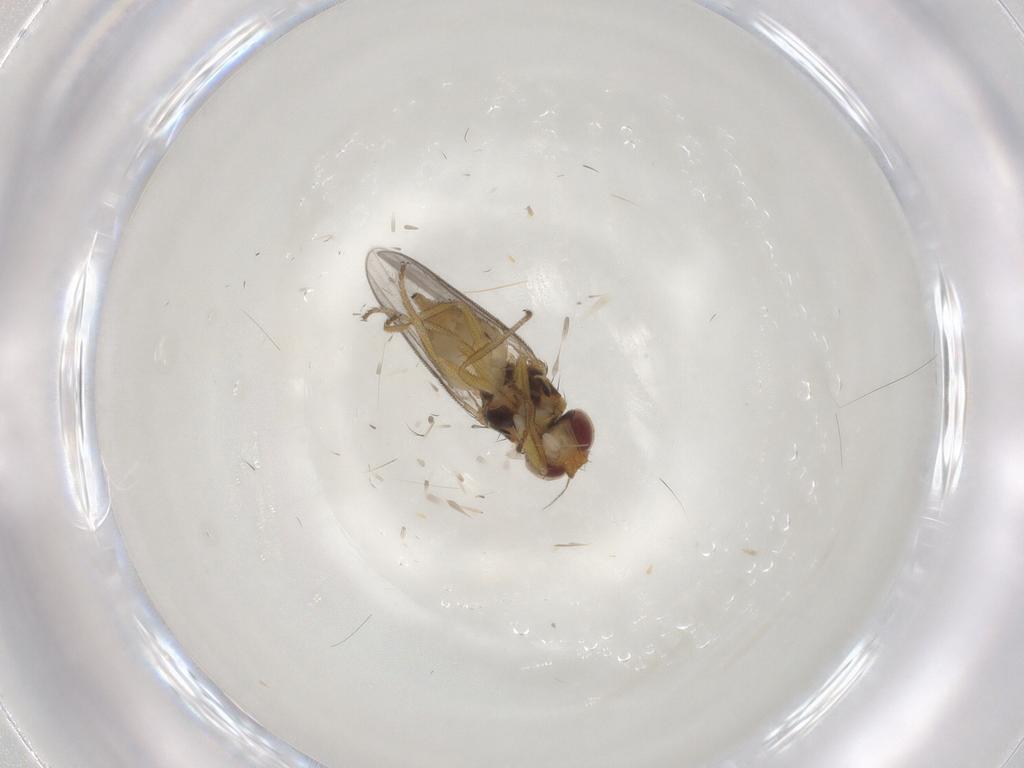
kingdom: Animalia
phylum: Arthropoda
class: Insecta
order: Diptera
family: Chloropidae
